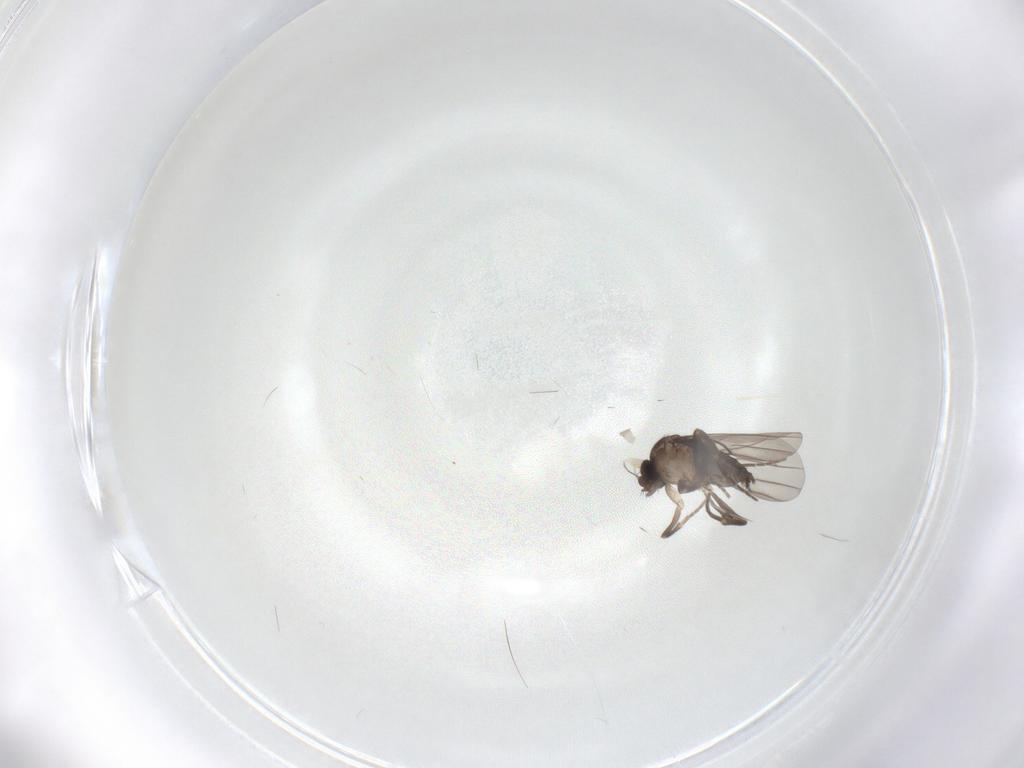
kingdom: Animalia
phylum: Arthropoda
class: Insecta
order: Diptera
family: Phoridae
